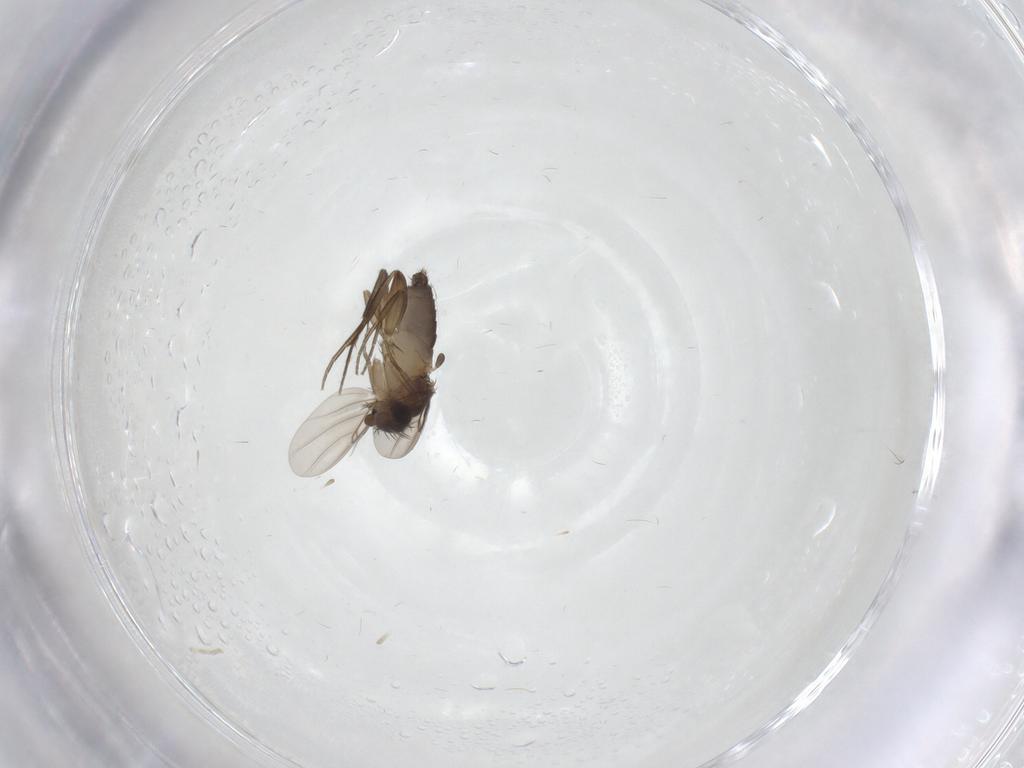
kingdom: Animalia
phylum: Arthropoda
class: Insecta
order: Diptera
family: Phoridae
